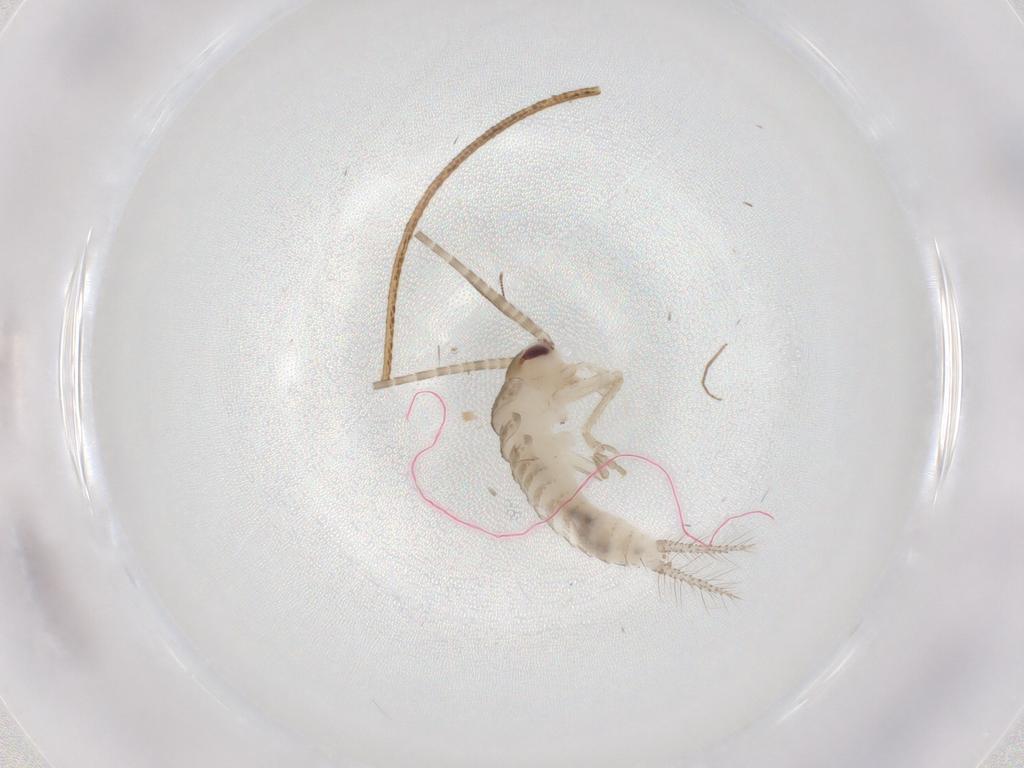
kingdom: Animalia
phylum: Arthropoda
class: Insecta
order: Orthoptera
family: Gryllidae
